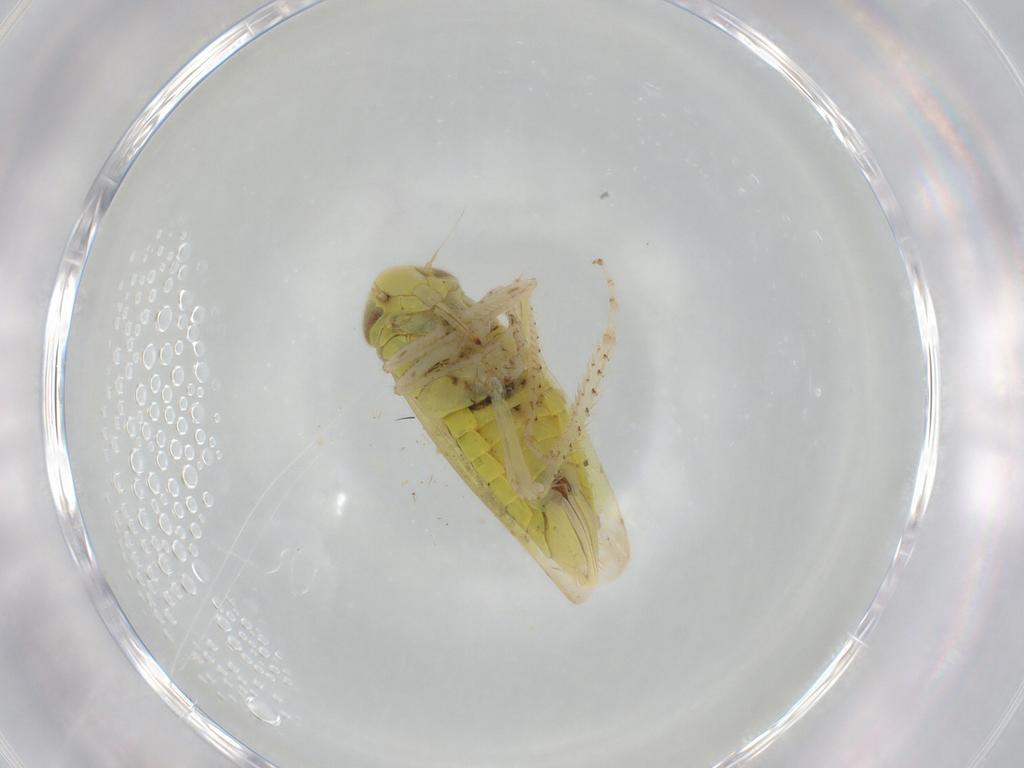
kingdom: Animalia
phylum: Arthropoda
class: Insecta
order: Hemiptera
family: Cicadellidae
